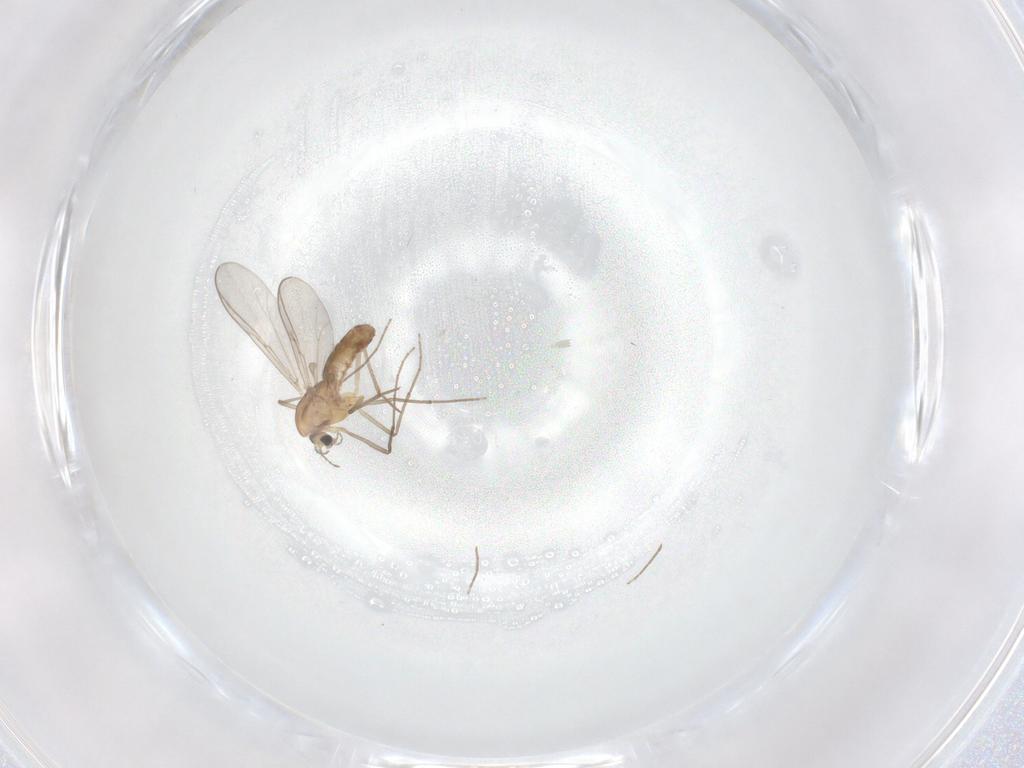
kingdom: Animalia
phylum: Arthropoda
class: Insecta
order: Diptera
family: Chironomidae
